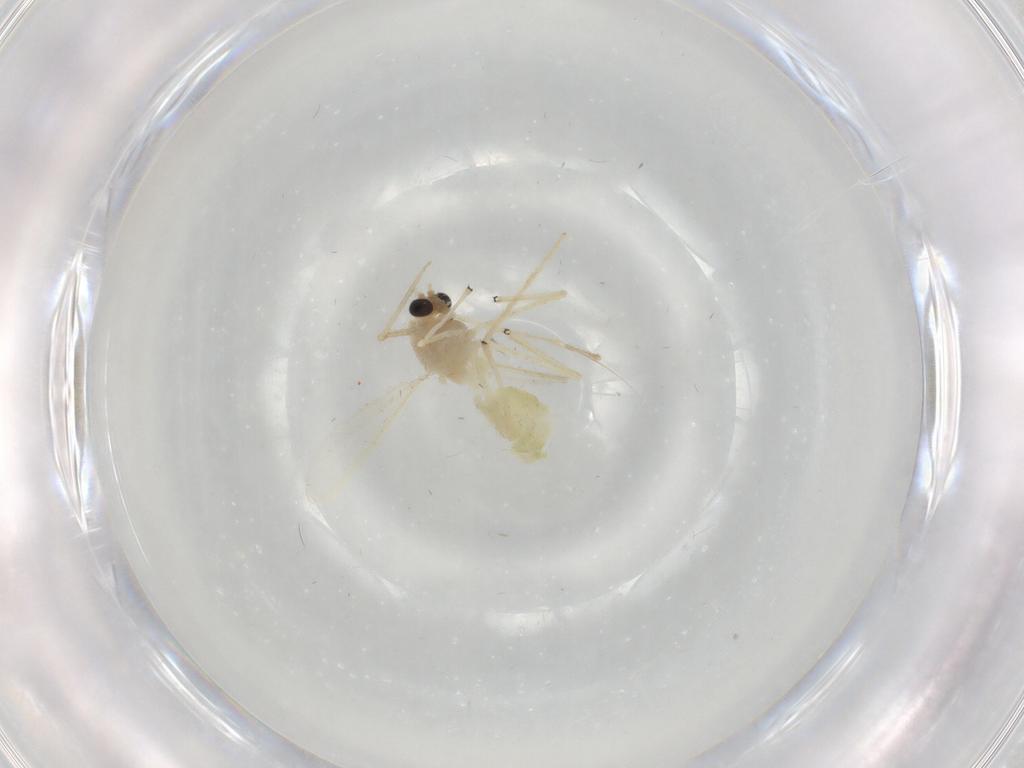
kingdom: Animalia
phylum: Arthropoda
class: Insecta
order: Diptera
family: Chironomidae
